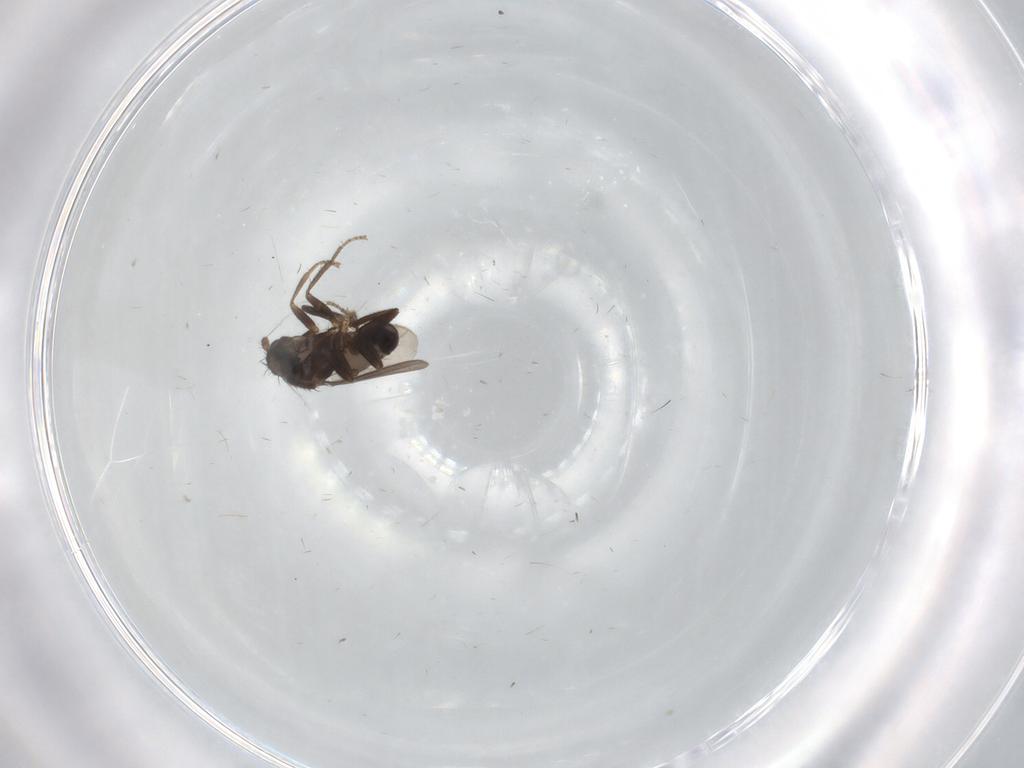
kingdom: Animalia
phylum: Arthropoda
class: Insecta
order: Diptera
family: Sphaeroceridae
